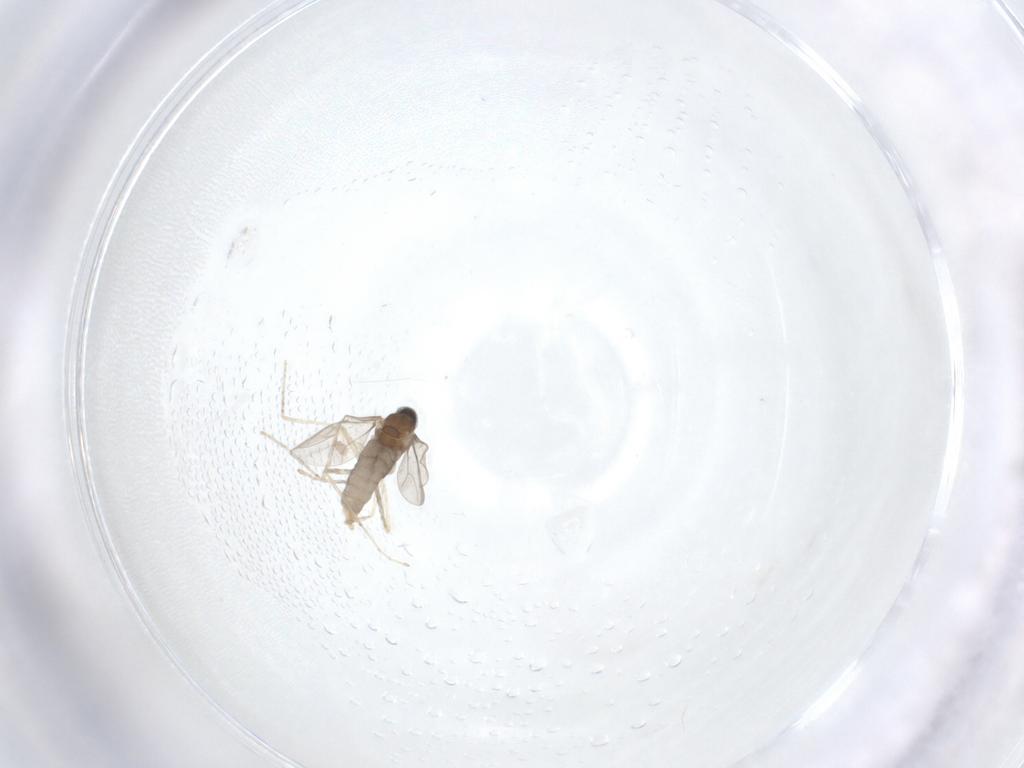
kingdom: Animalia
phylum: Arthropoda
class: Insecta
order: Diptera
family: Cecidomyiidae
